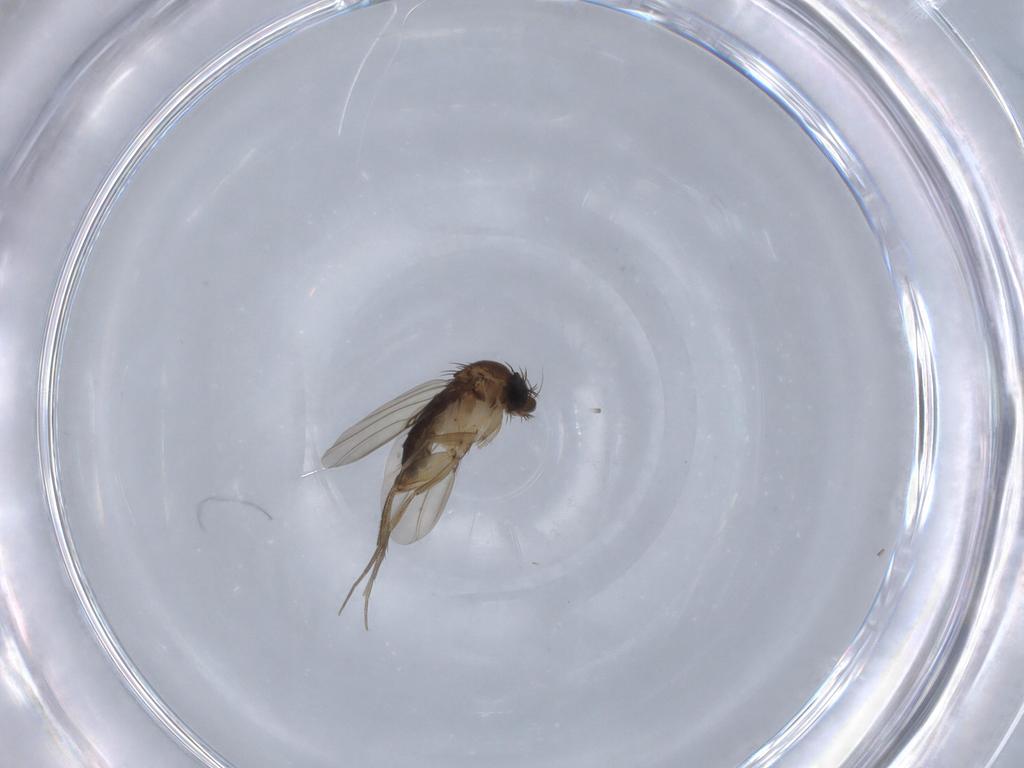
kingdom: Animalia
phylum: Arthropoda
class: Insecta
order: Diptera
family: Phoridae
